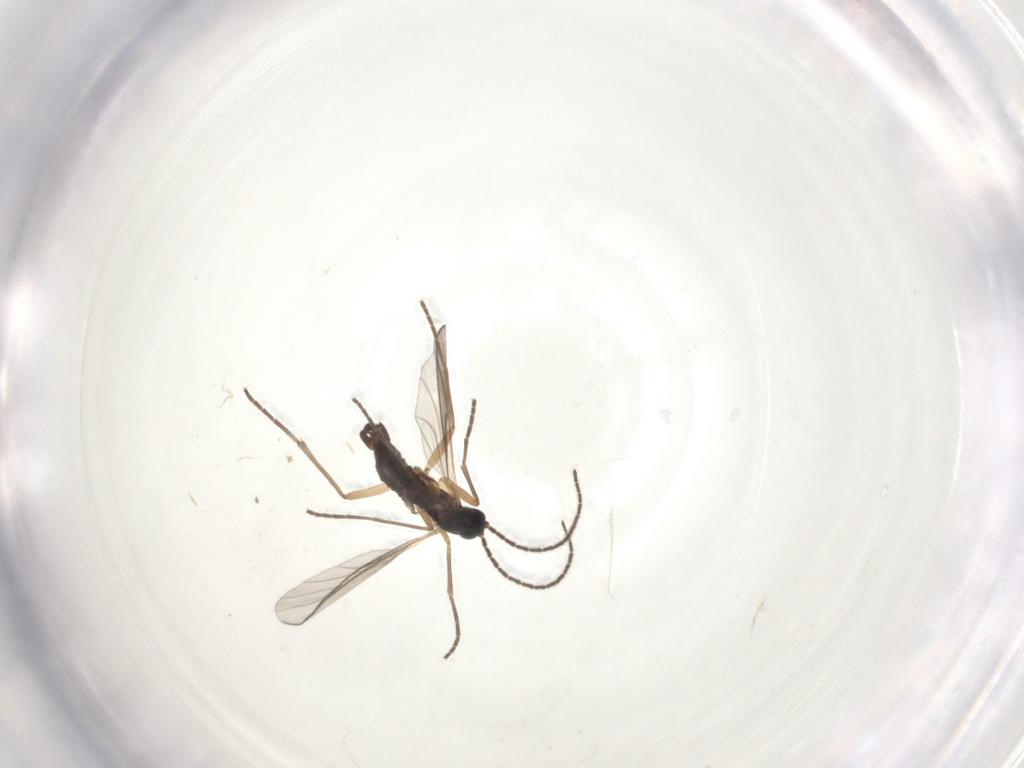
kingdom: Animalia
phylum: Arthropoda
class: Insecta
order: Diptera
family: Sciaridae
